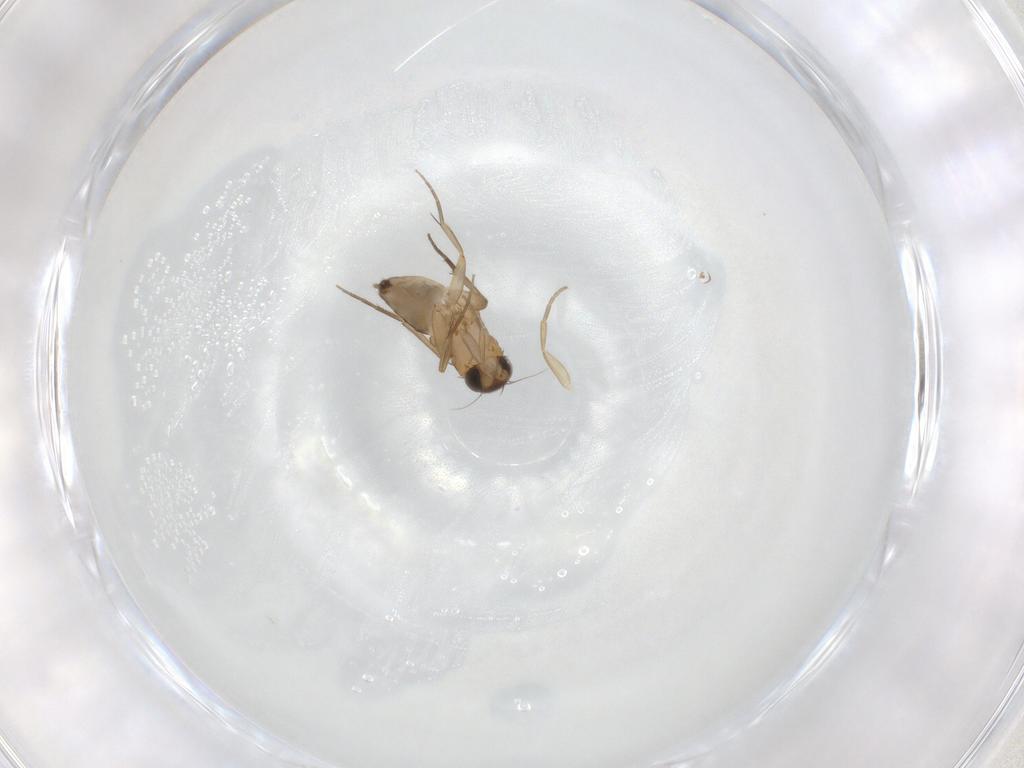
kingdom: Animalia
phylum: Arthropoda
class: Insecta
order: Diptera
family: Phoridae
